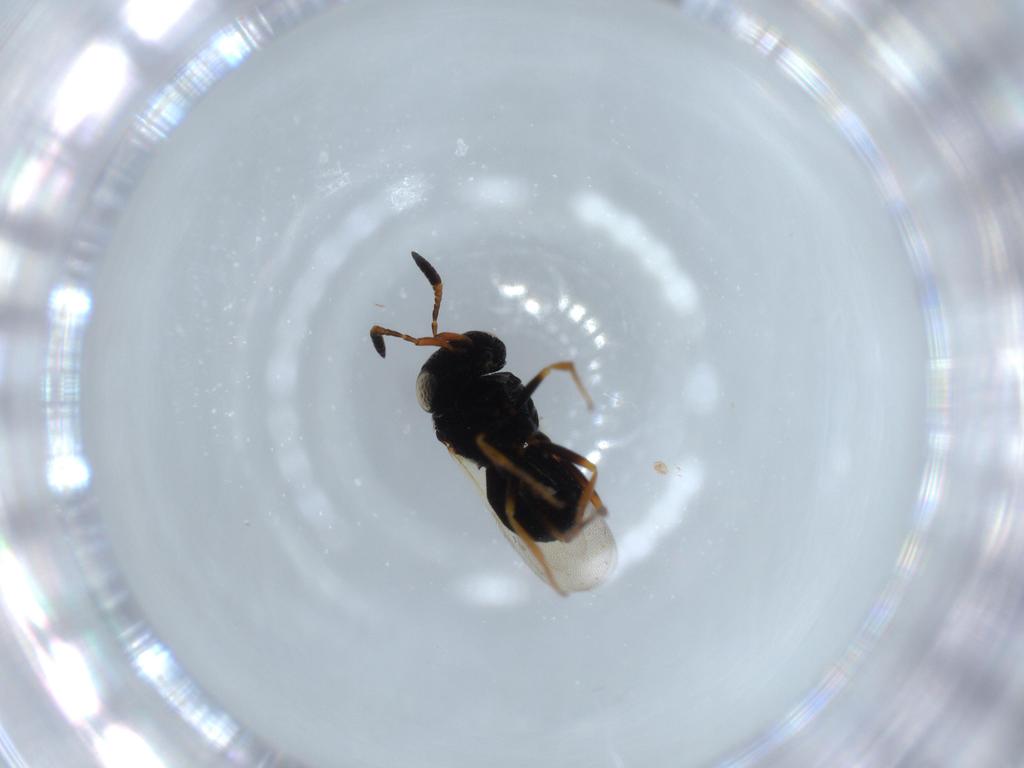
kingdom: Animalia
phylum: Arthropoda
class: Insecta
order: Hymenoptera
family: Scelionidae
